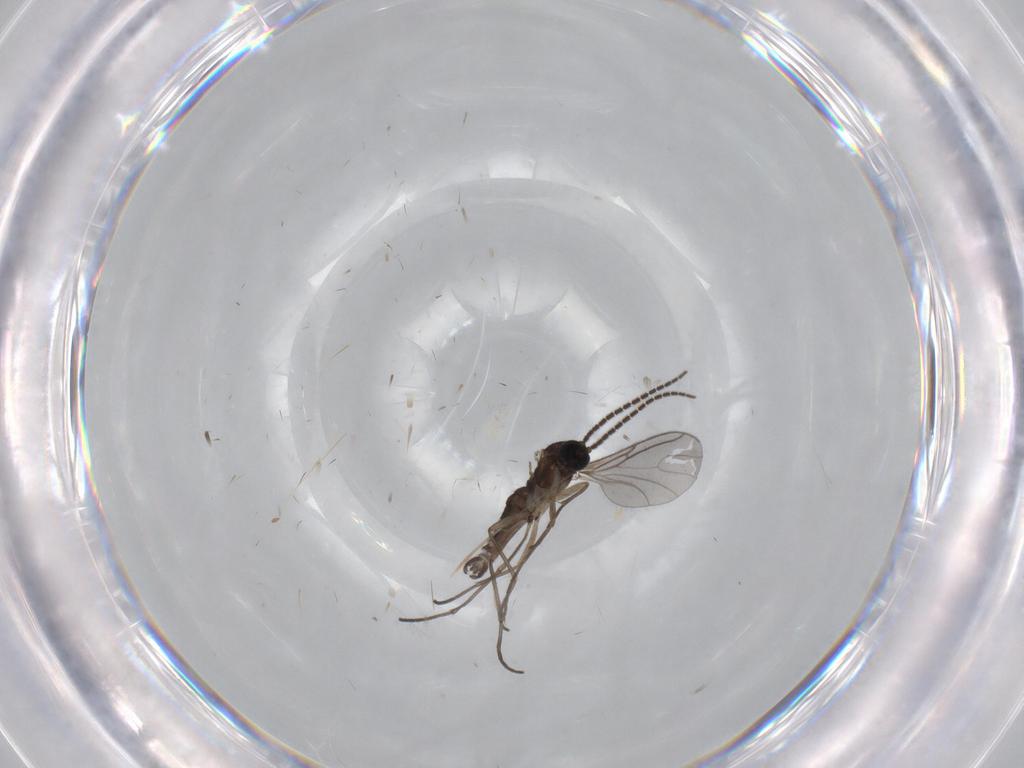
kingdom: Animalia
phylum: Arthropoda
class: Insecta
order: Diptera
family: Sciaridae
